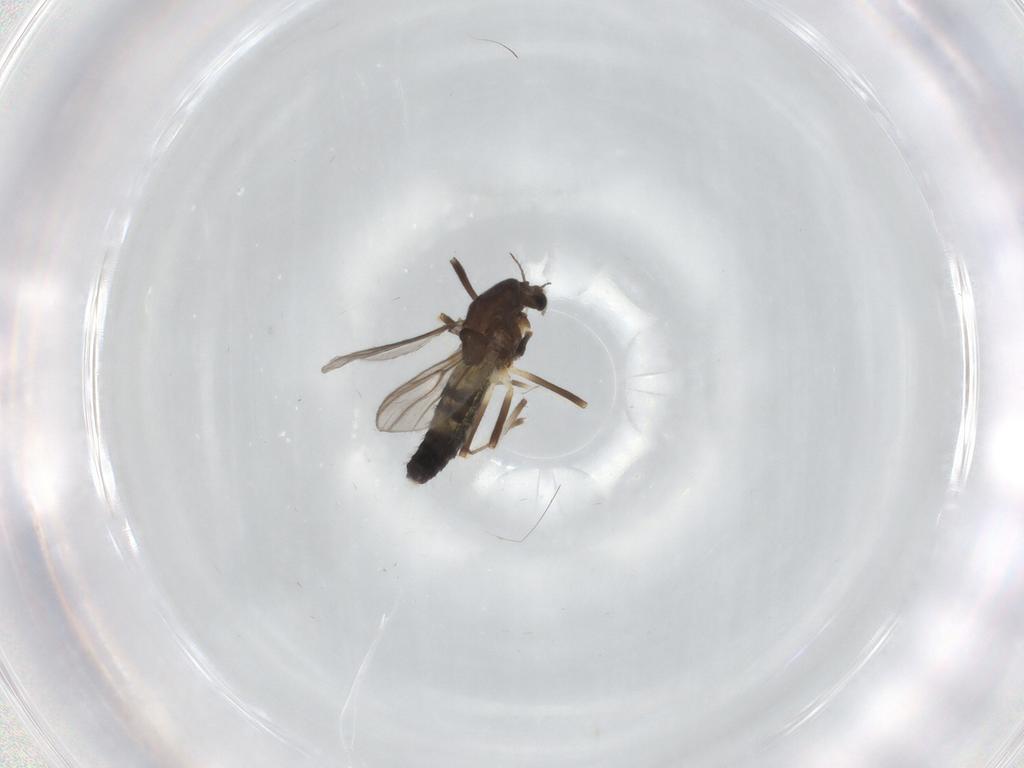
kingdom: Animalia
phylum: Arthropoda
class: Insecta
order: Diptera
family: Chironomidae
